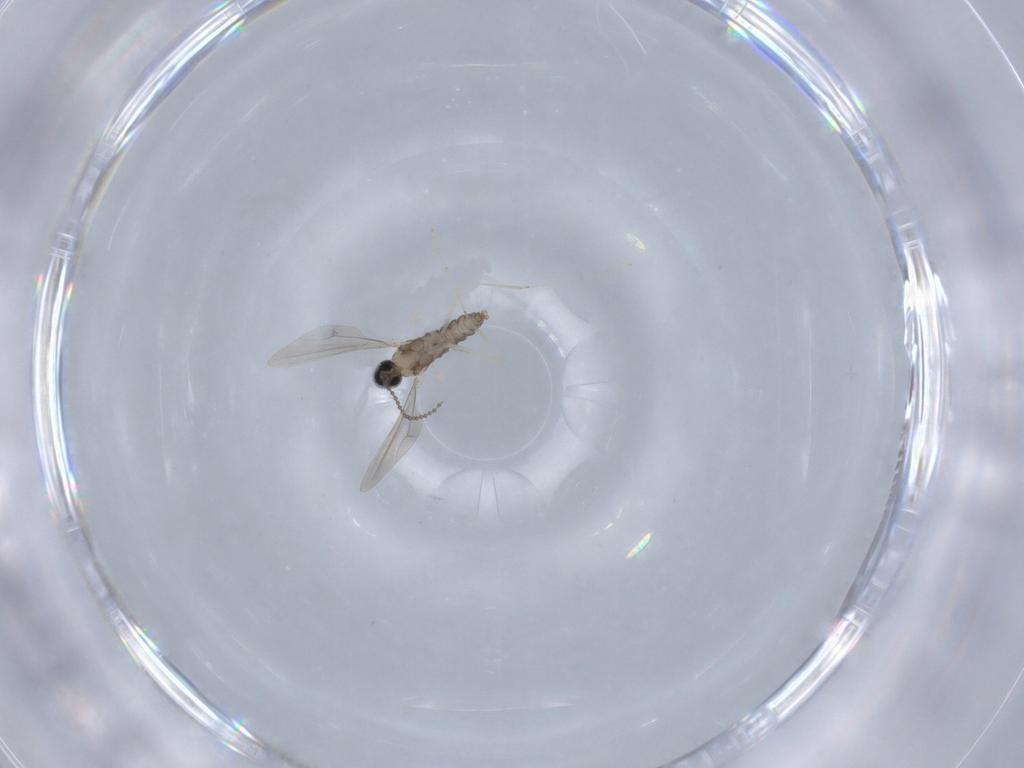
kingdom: Animalia
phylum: Arthropoda
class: Insecta
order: Diptera
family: Cecidomyiidae
